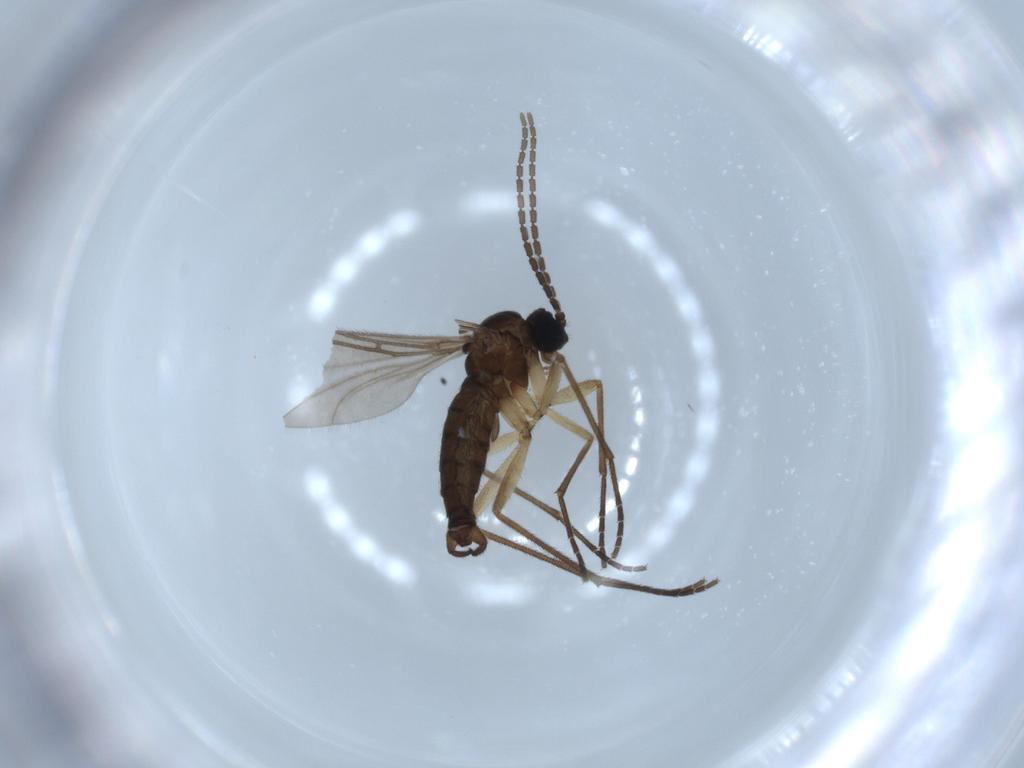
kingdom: Animalia
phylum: Arthropoda
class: Insecta
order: Diptera
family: Sciaridae
